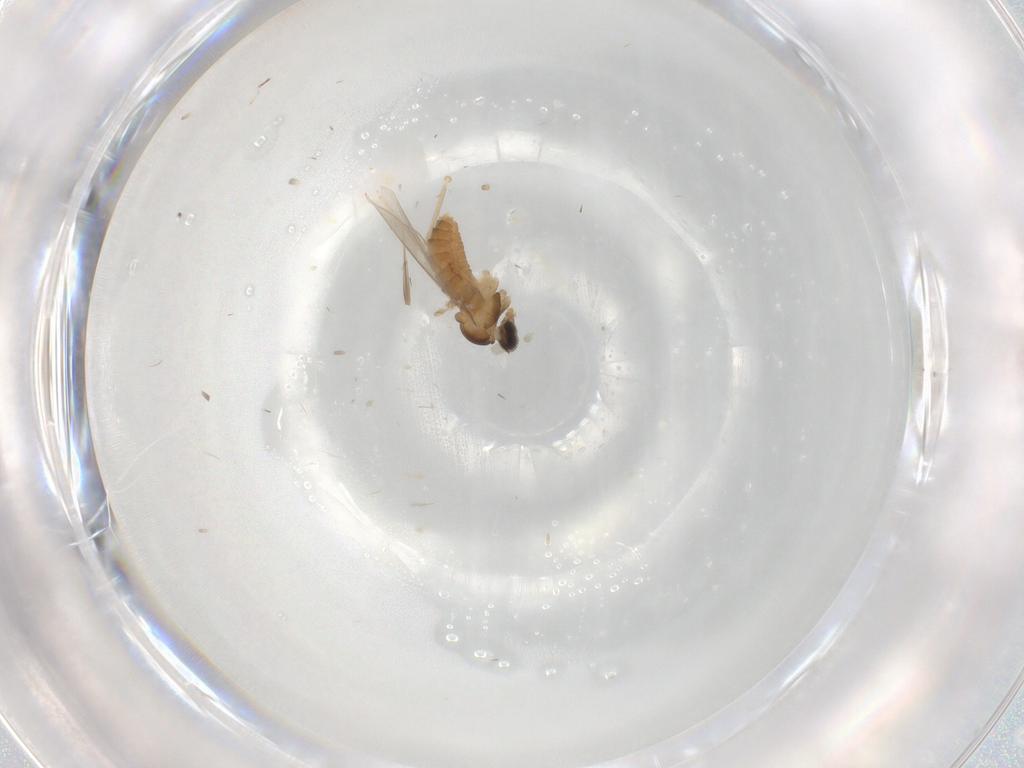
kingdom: Animalia
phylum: Arthropoda
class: Insecta
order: Diptera
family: Cecidomyiidae
